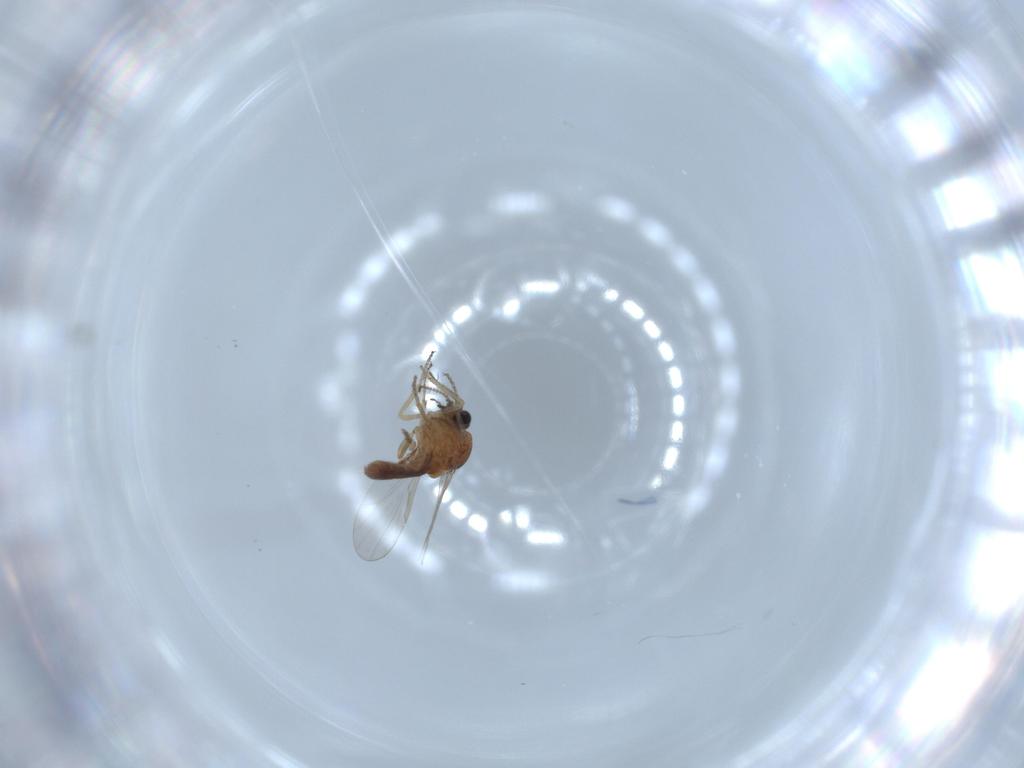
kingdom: Animalia
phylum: Arthropoda
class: Insecta
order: Diptera
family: Ceratopogonidae
